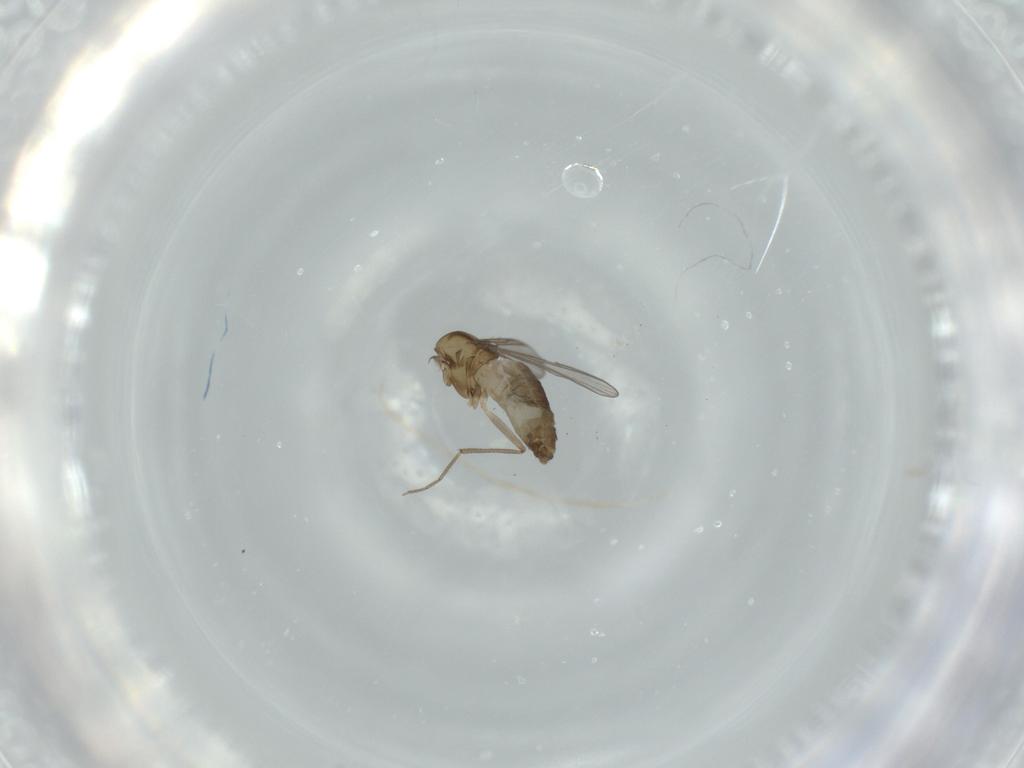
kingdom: Animalia
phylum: Arthropoda
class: Insecta
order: Diptera
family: Chironomidae
